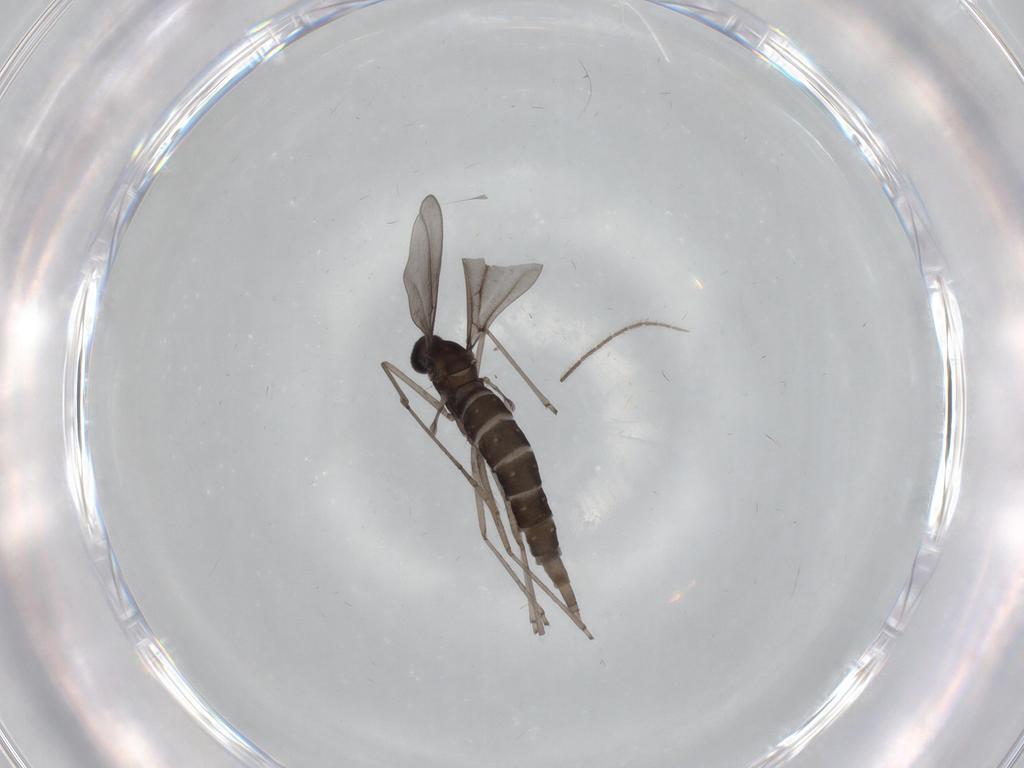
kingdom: Animalia
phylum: Arthropoda
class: Insecta
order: Diptera
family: Cecidomyiidae
